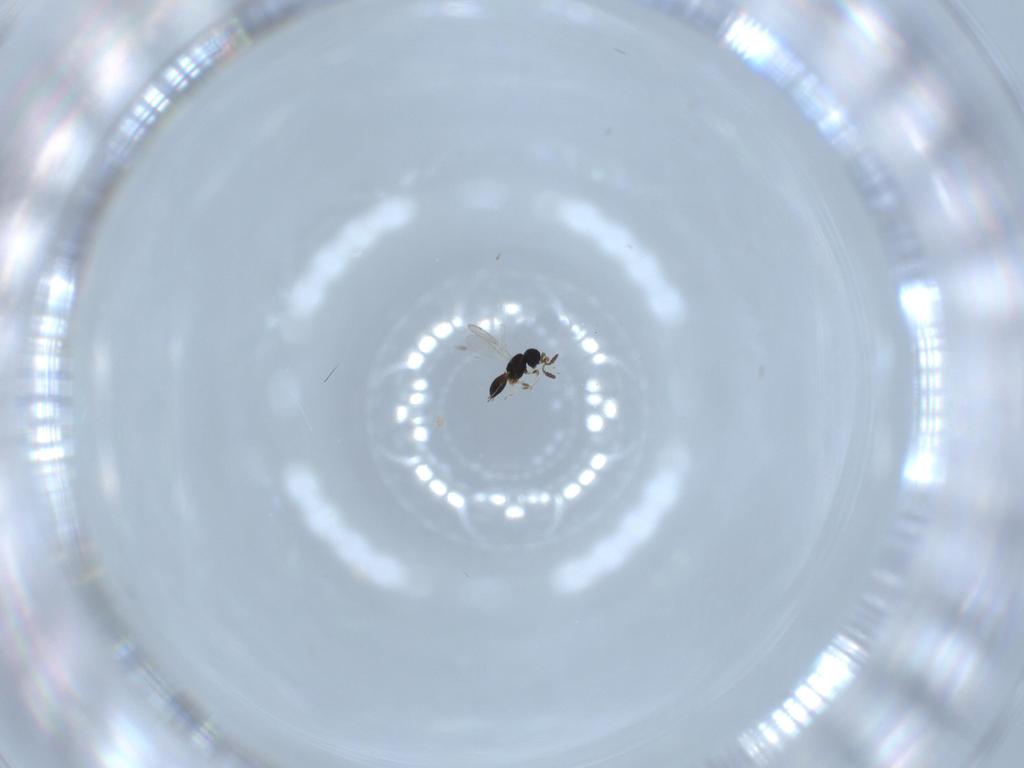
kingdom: Animalia
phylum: Arthropoda
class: Insecta
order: Hymenoptera
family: Scelionidae
